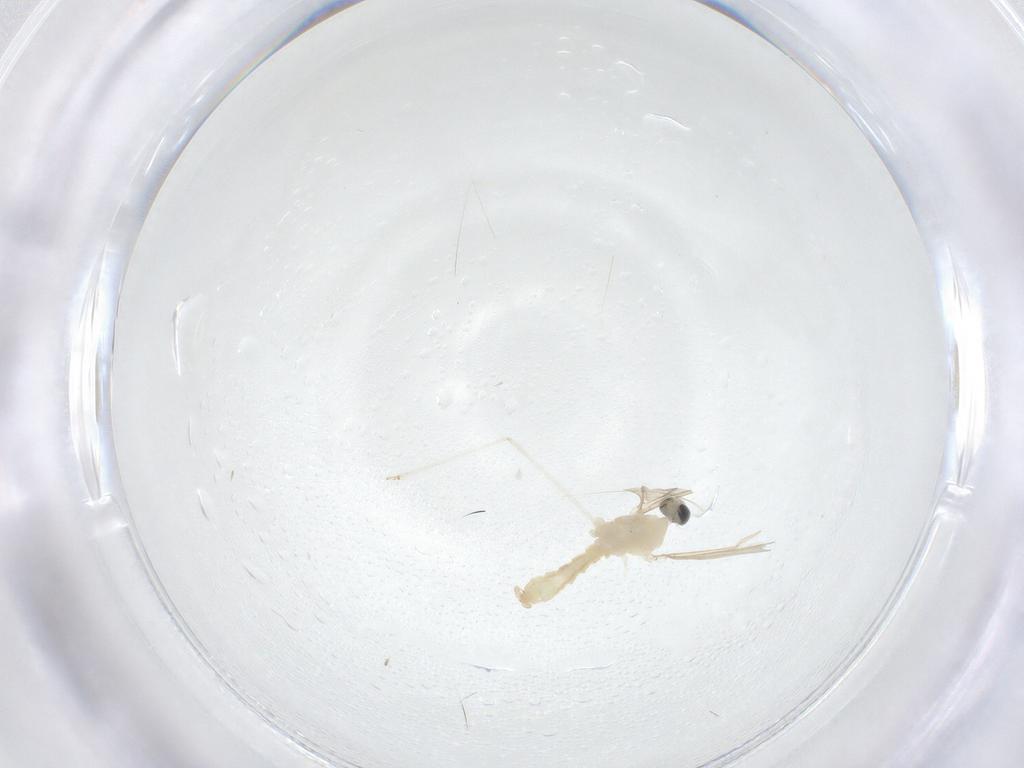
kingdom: Animalia
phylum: Arthropoda
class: Insecta
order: Diptera
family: Cecidomyiidae
